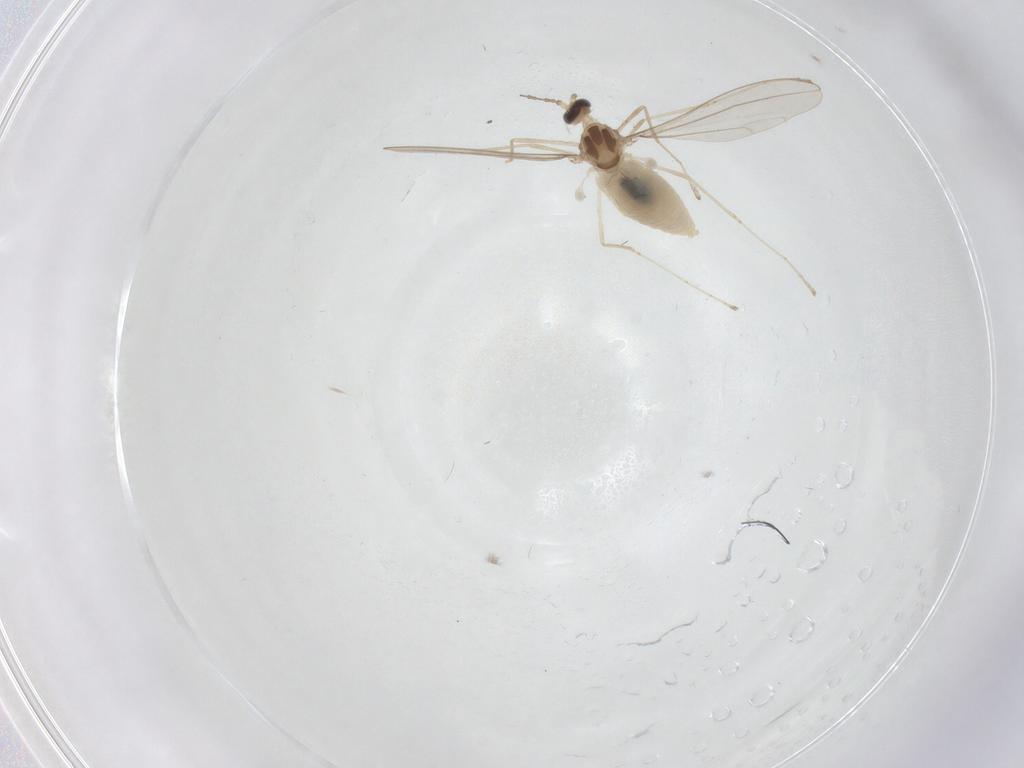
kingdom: Animalia
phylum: Arthropoda
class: Insecta
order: Diptera
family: Cecidomyiidae
